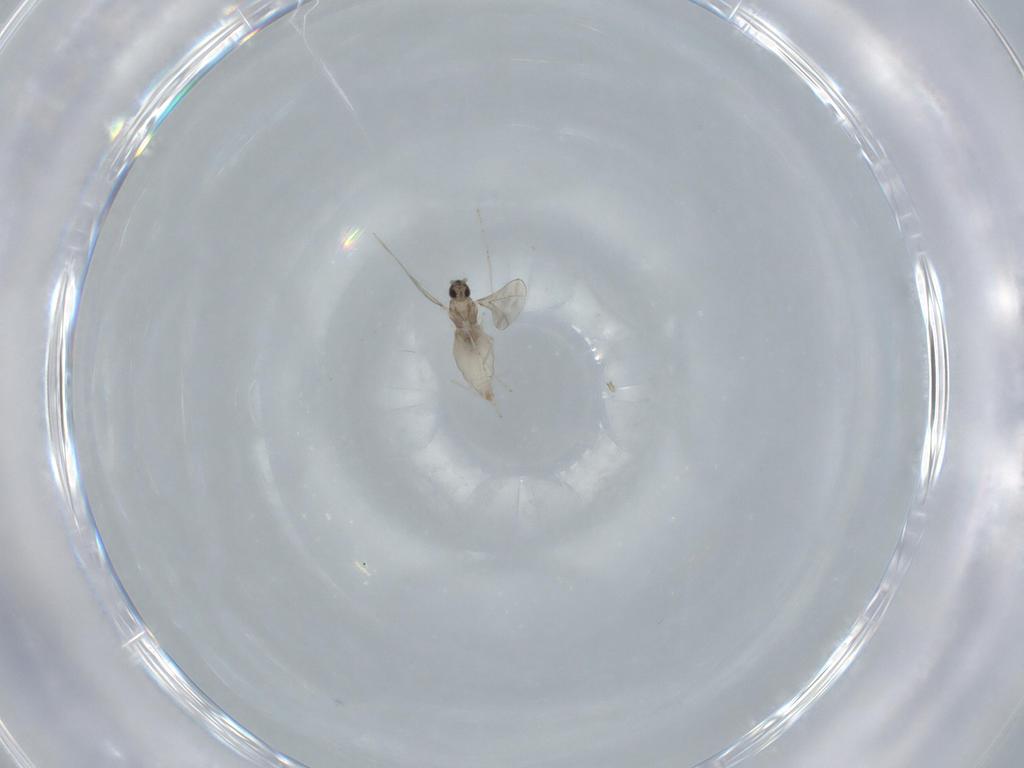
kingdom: Animalia
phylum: Arthropoda
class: Insecta
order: Diptera
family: Cecidomyiidae
